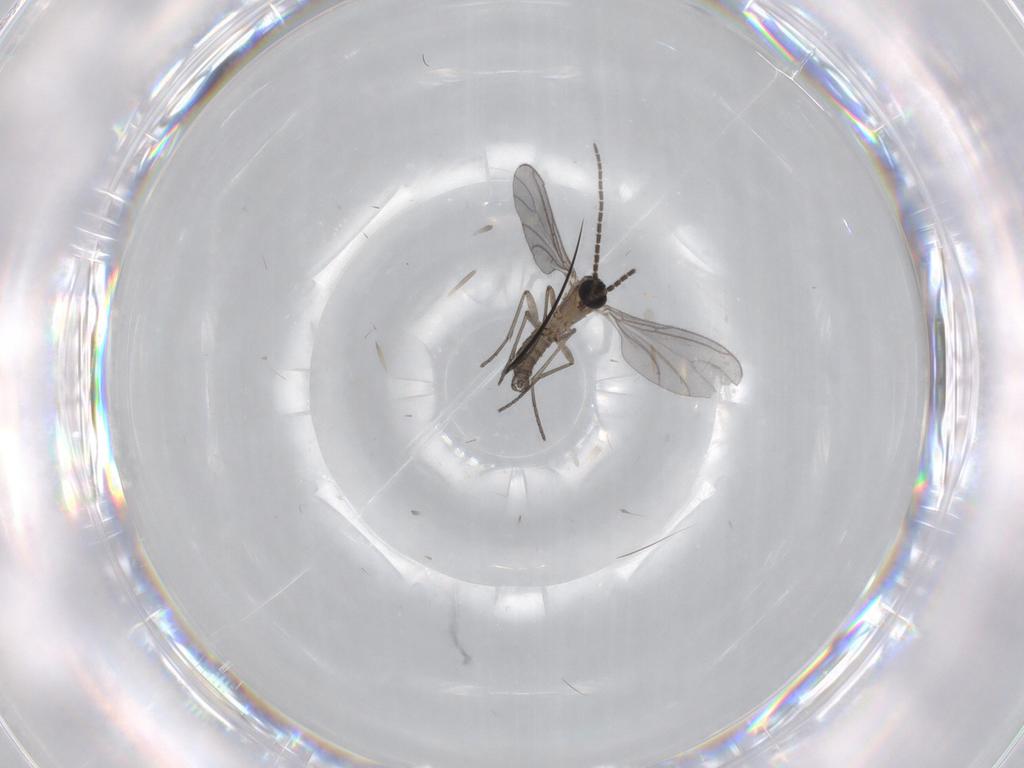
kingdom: Animalia
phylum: Arthropoda
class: Insecta
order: Diptera
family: Sciaridae
